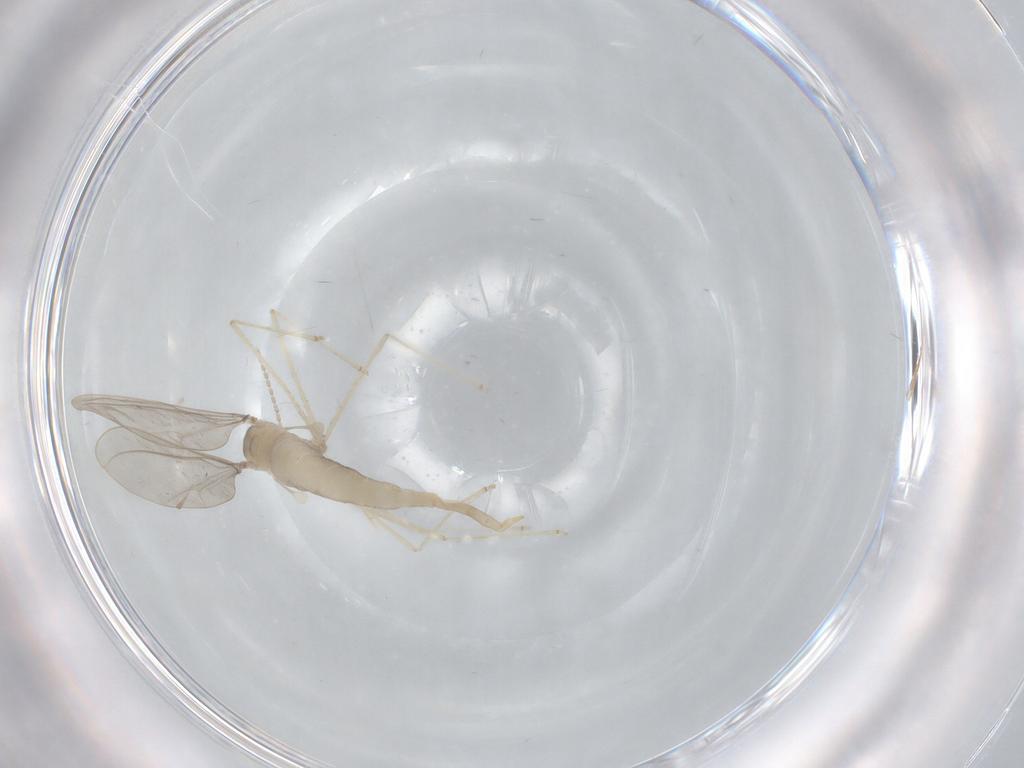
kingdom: Animalia
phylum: Arthropoda
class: Insecta
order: Diptera
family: Cecidomyiidae
